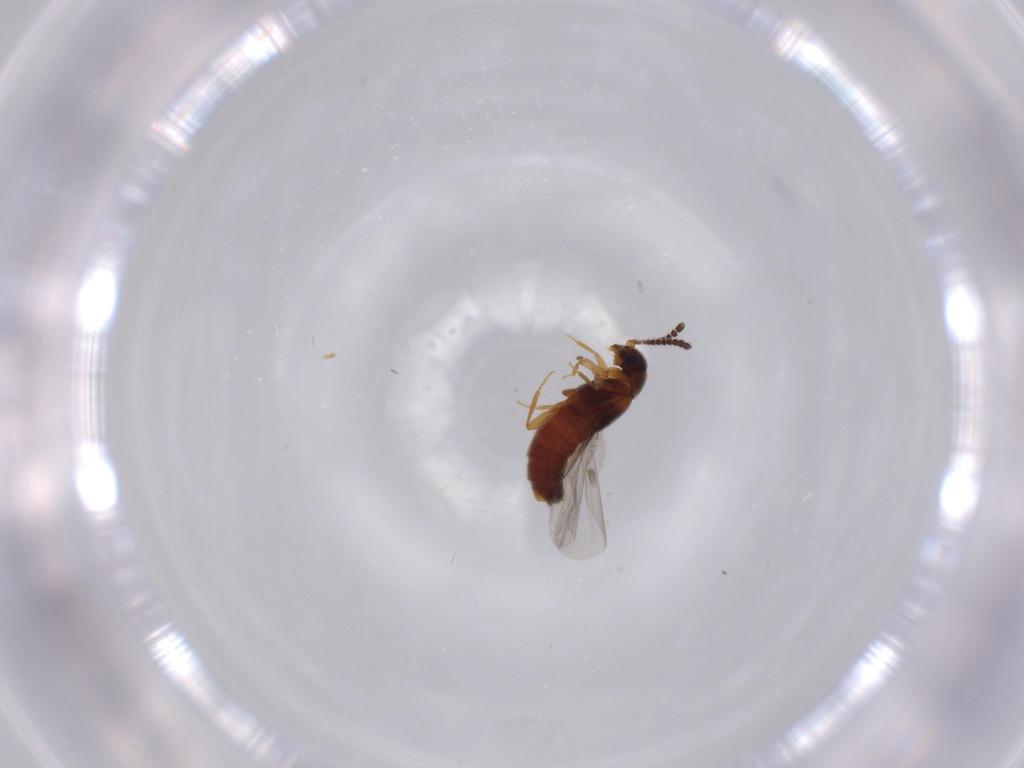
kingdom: Animalia
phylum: Arthropoda
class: Insecta
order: Coleoptera
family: Staphylinidae
